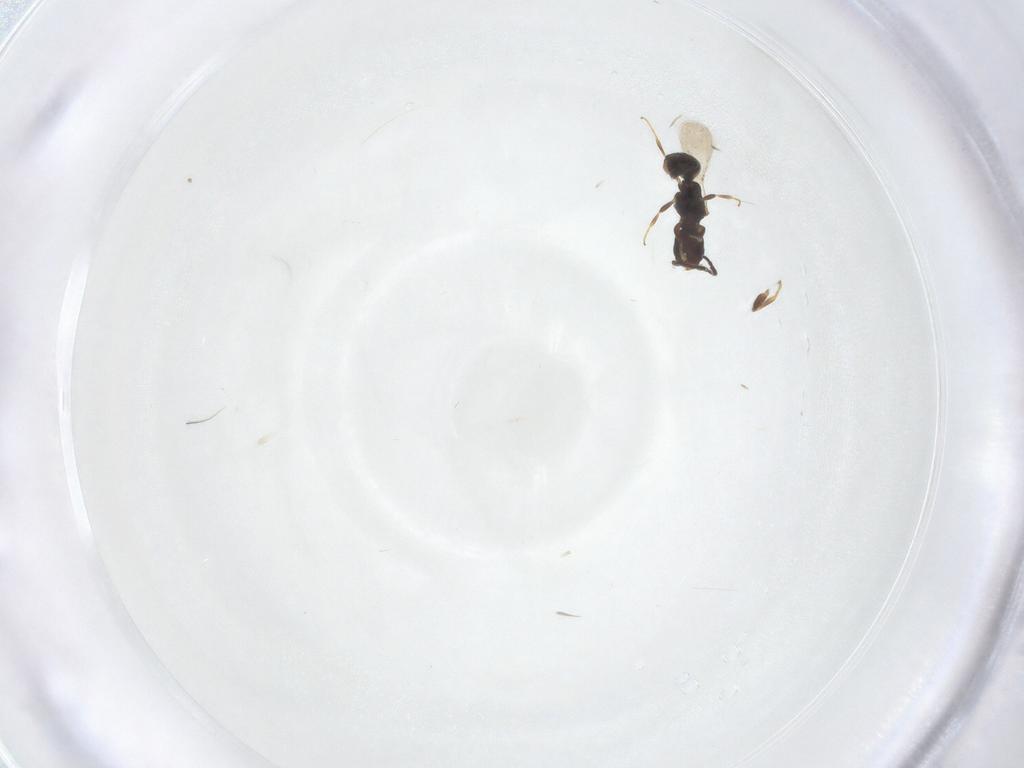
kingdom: Animalia
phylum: Arthropoda
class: Insecta
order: Hymenoptera
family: Bethylidae
